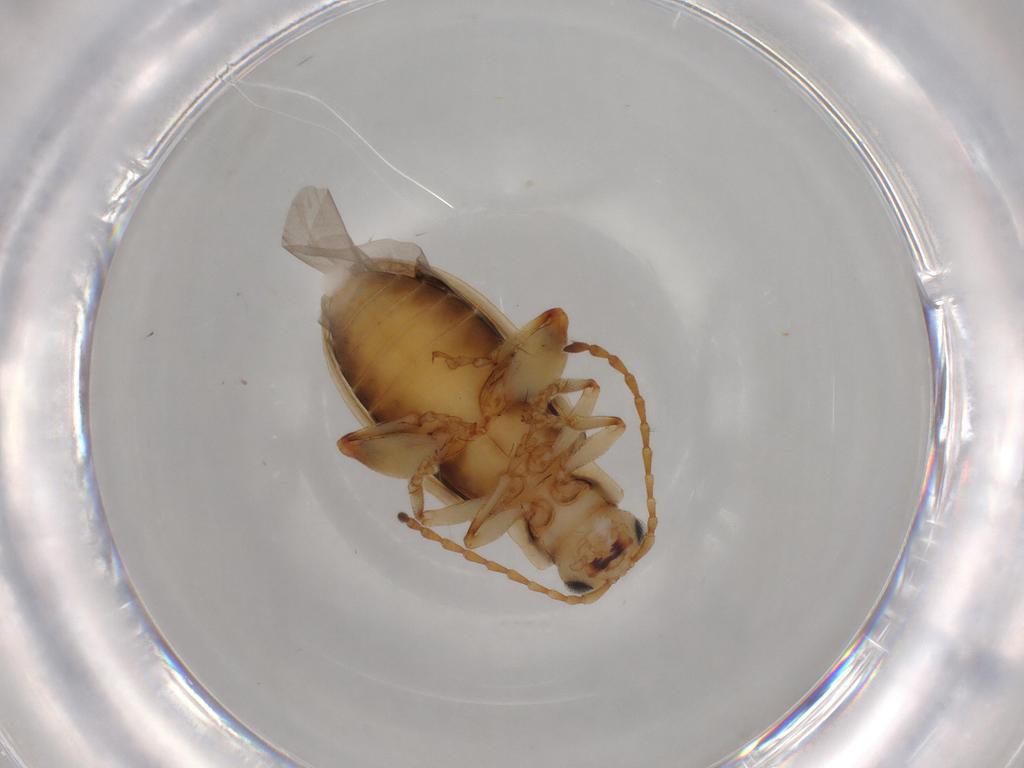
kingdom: Animalia
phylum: Arthropoda
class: Insecta
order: Coleoptera
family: Chrysomelidae
